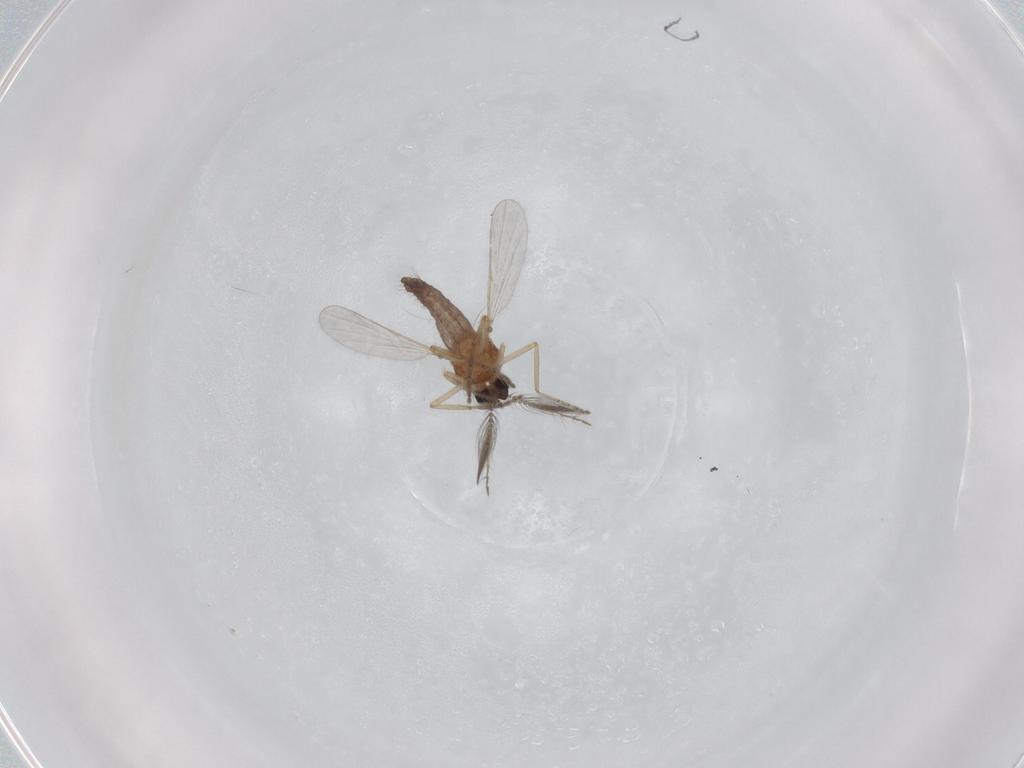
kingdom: Animalia
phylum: Arthropoda
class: Insecta
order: Diptera
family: Ceratopogonidae
